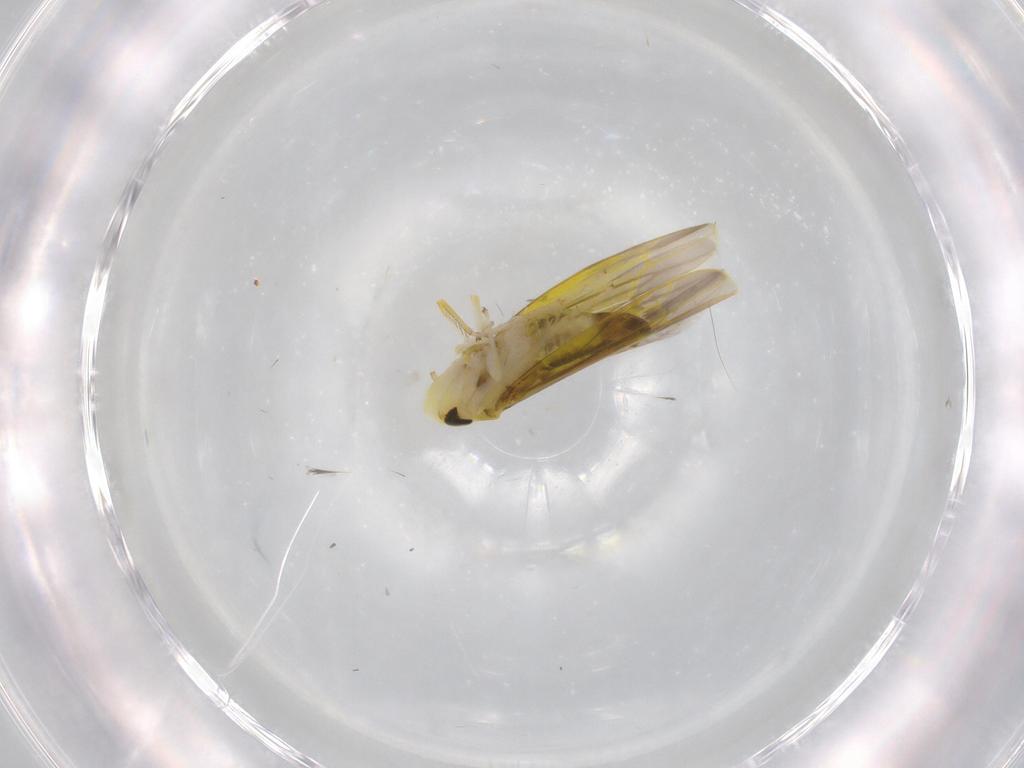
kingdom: Animalia
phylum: Arthropoda
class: Insecta
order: Hemiptera
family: Cicadellidae
